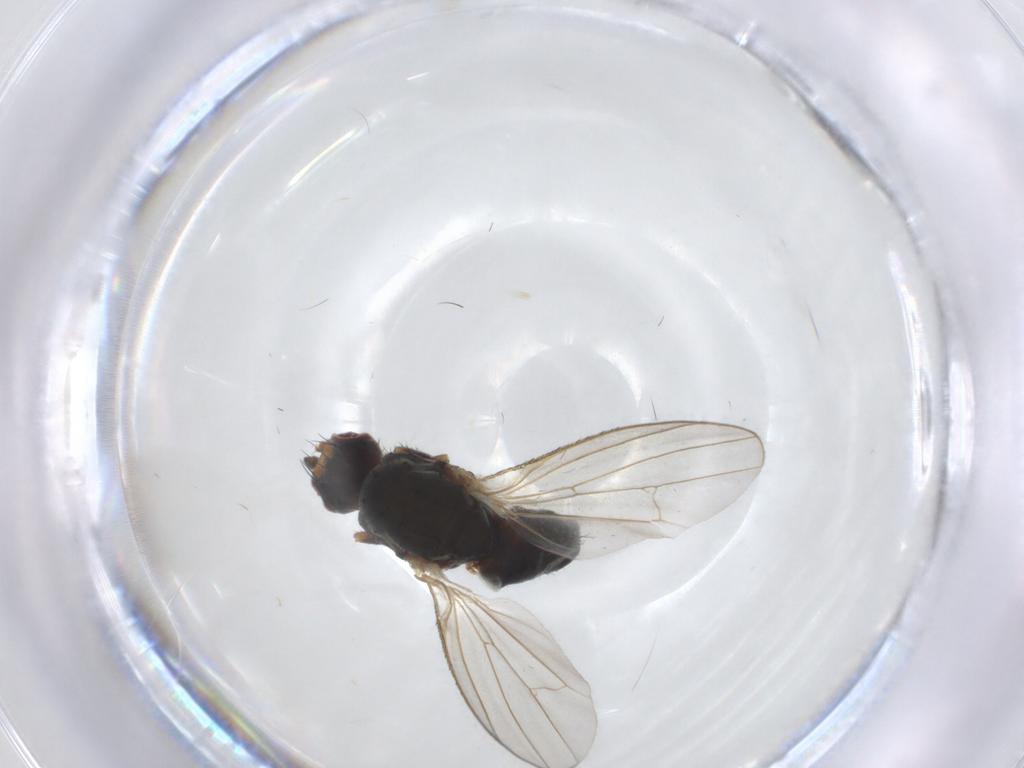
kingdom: Animalia
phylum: Arthropoda
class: Insecta
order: Diptera
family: Heleomyzidae
